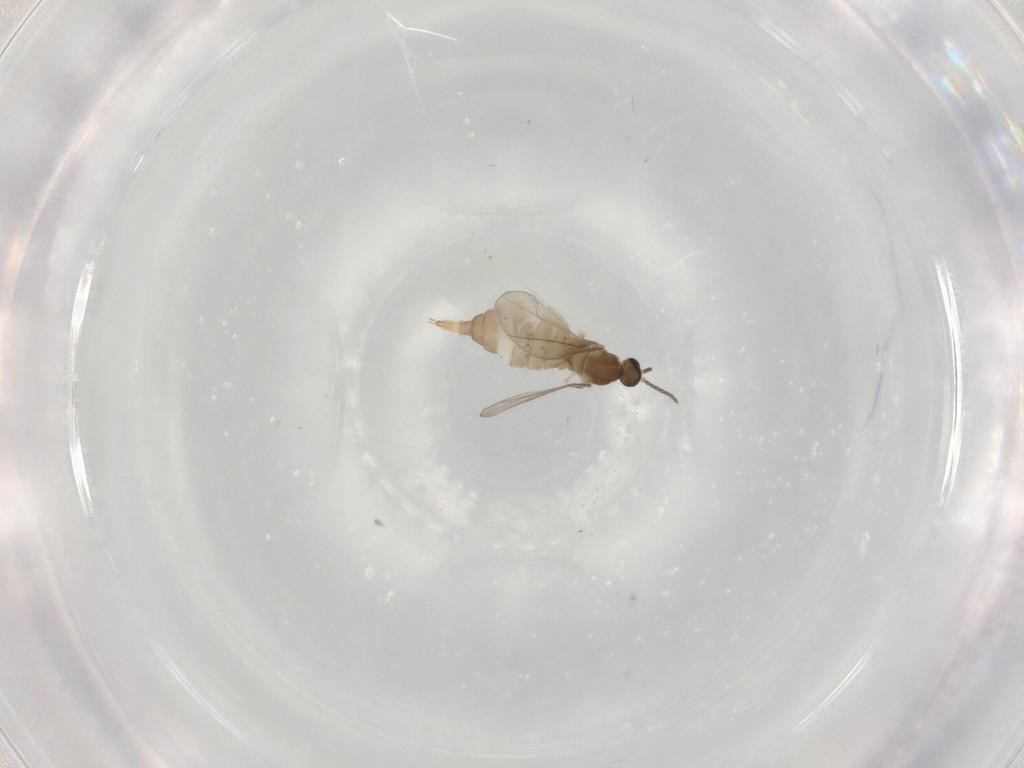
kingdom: Animalia
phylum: Arthropoda
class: Insecta
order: Diptera
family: Cecidomyiidae
